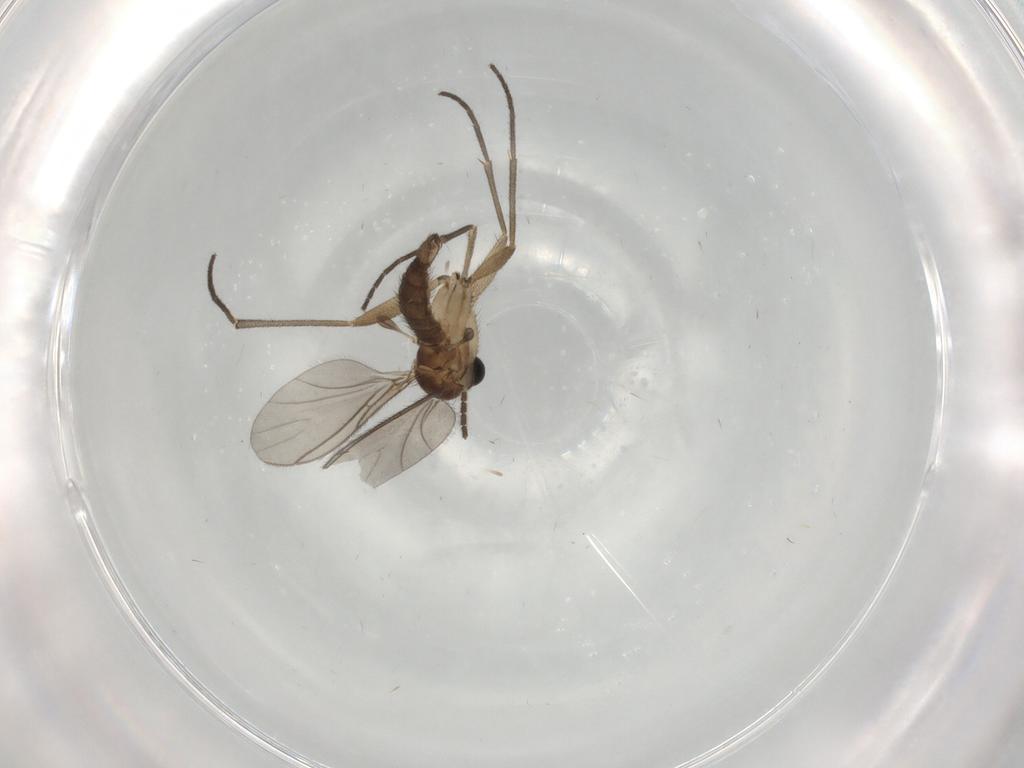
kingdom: Animalia
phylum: Arthropoda
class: Insecta
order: Diptera
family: Sciaridae
